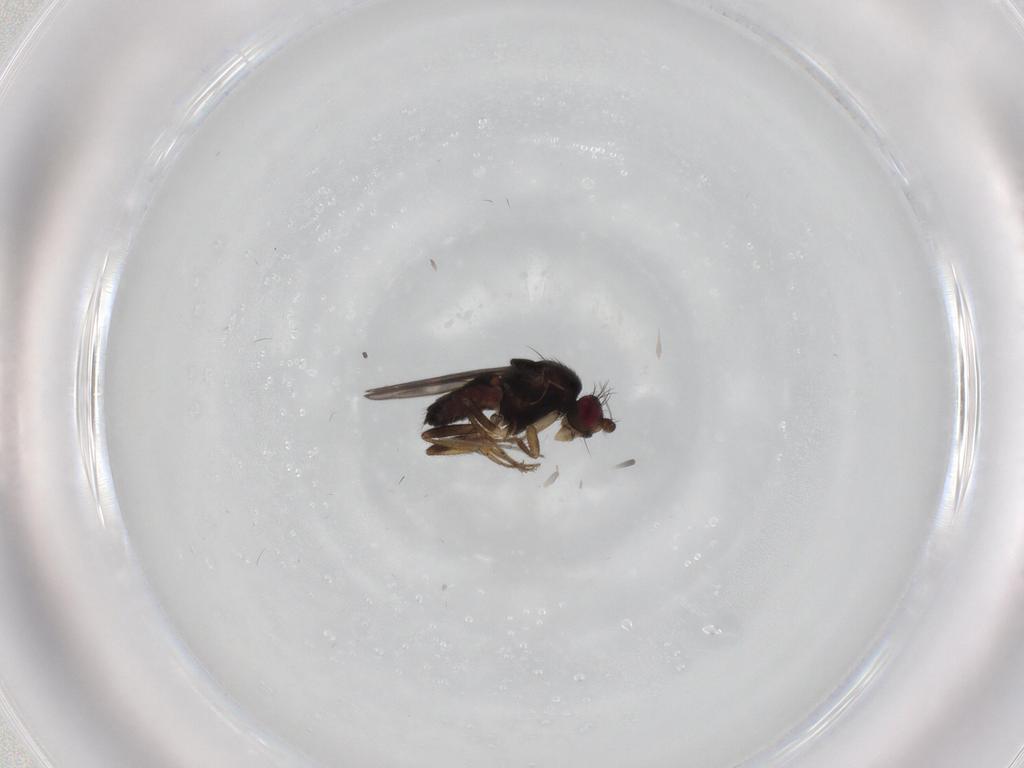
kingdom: Animalia
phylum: Arthropoda
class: Insecta
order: Diptera
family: Sphaeroceridae
